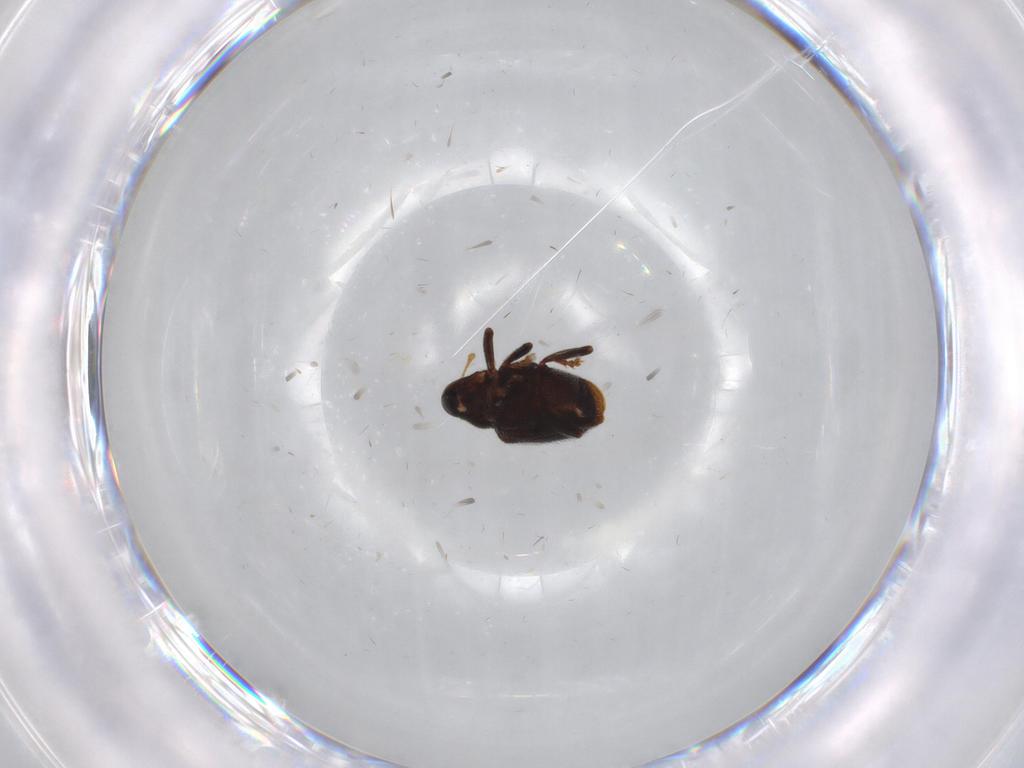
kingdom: Animalia
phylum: Arthropoda
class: Insecta
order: Coleoptera
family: Curculionidae
